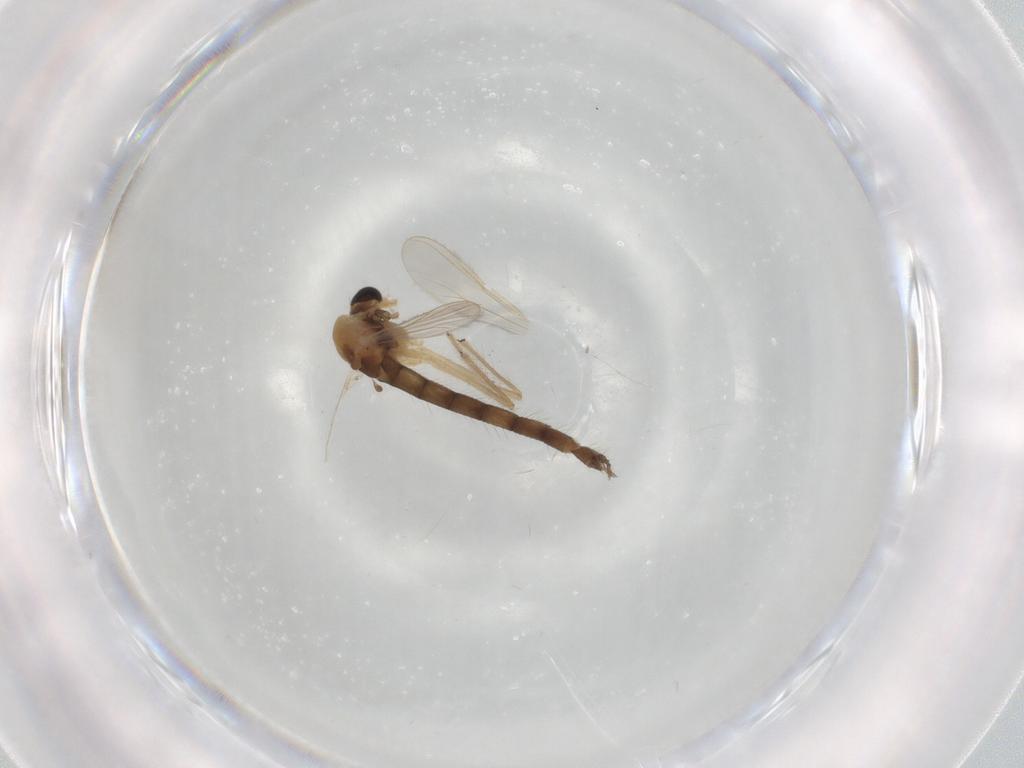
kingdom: Animalia
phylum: Arthropoda
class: Insecta
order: Diptera
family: Chironomidae
